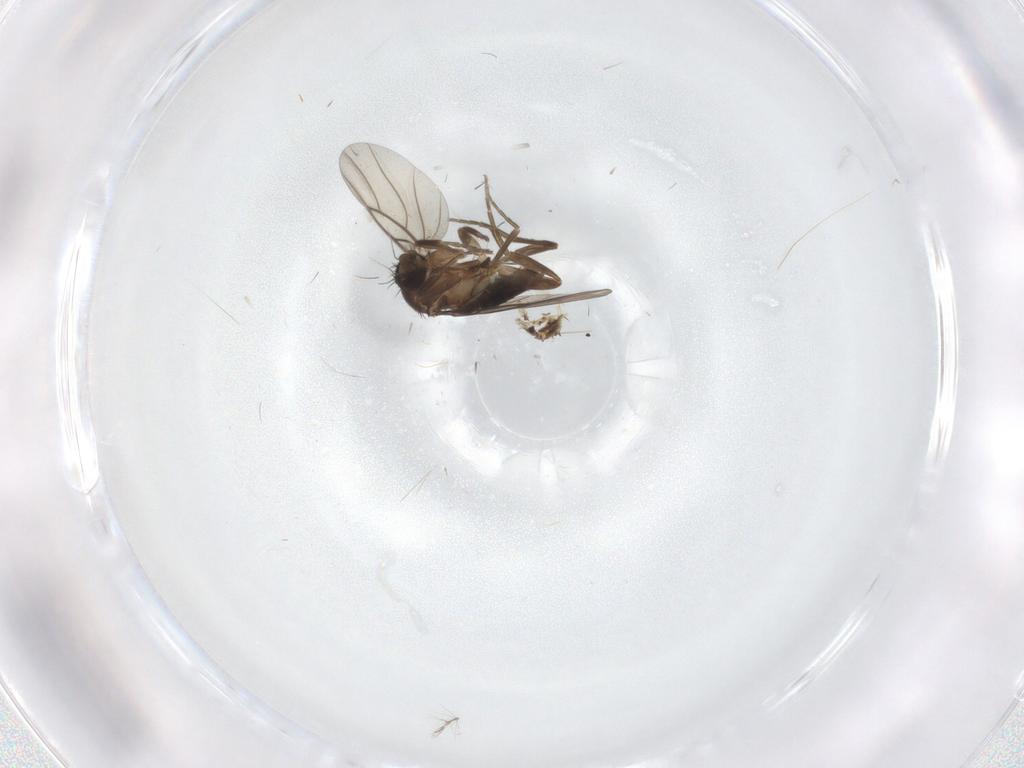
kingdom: Animalia
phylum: Arthropoda
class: Insecta
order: Diptera
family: Phoridae
